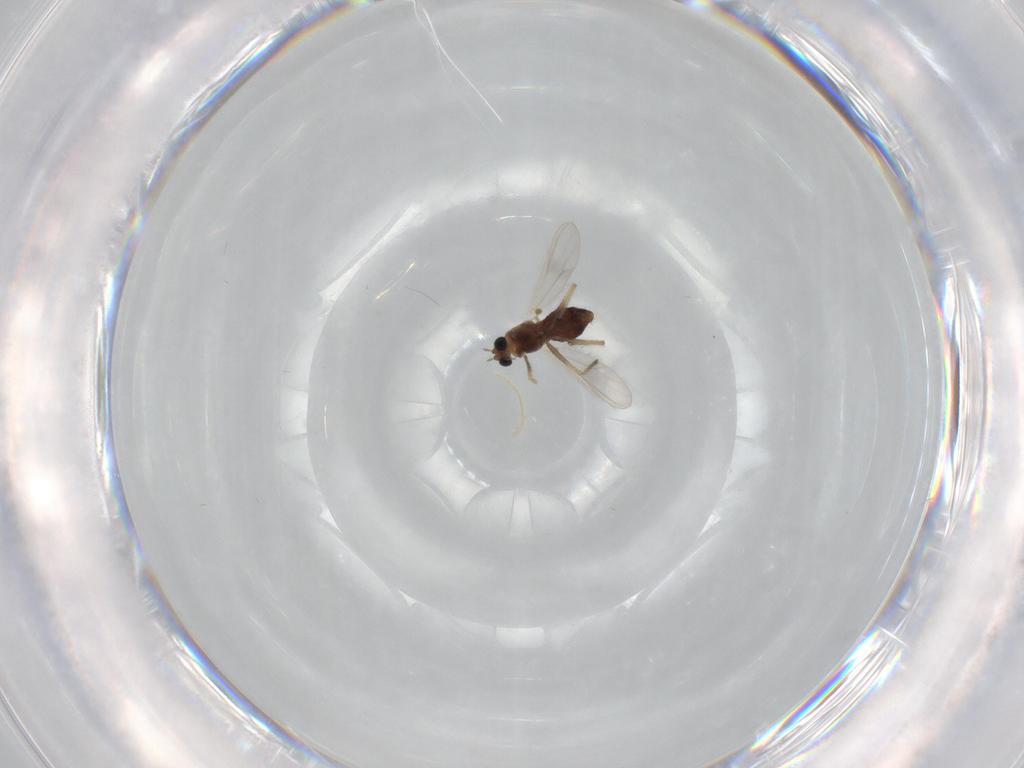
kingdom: Animalia
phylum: Arthropoda
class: Insecta
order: Diptera
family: Chironomidae
